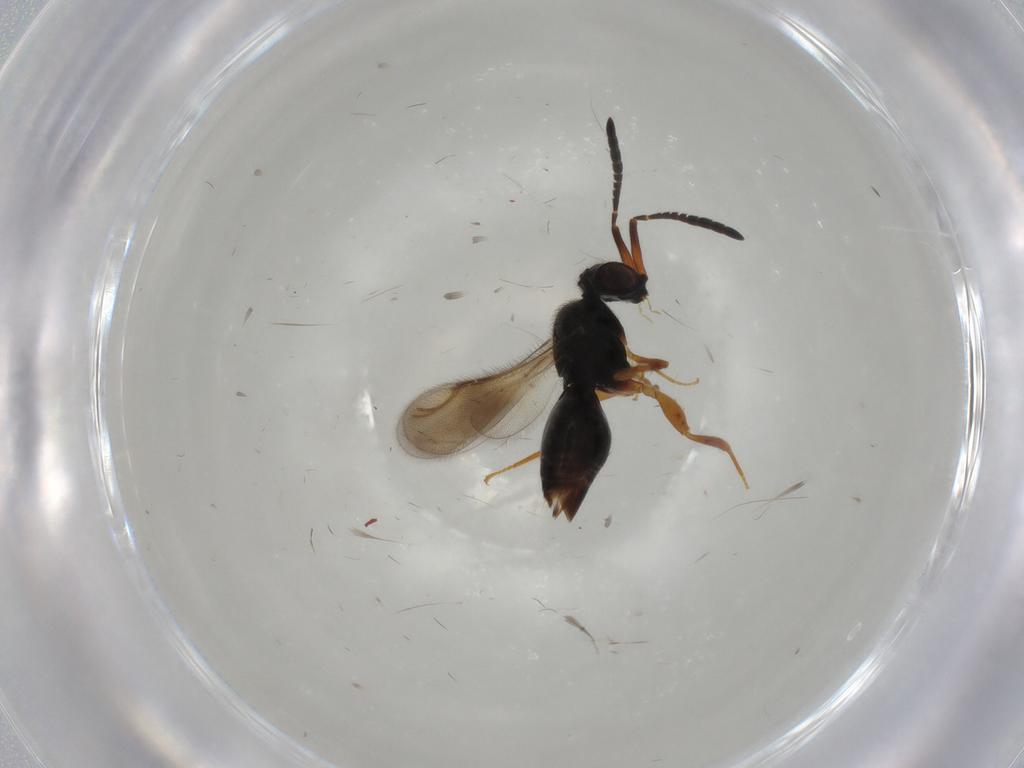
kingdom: Animalia
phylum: Arthropoda
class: Insecta
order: Hymenoptera
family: Ceraphronidae
